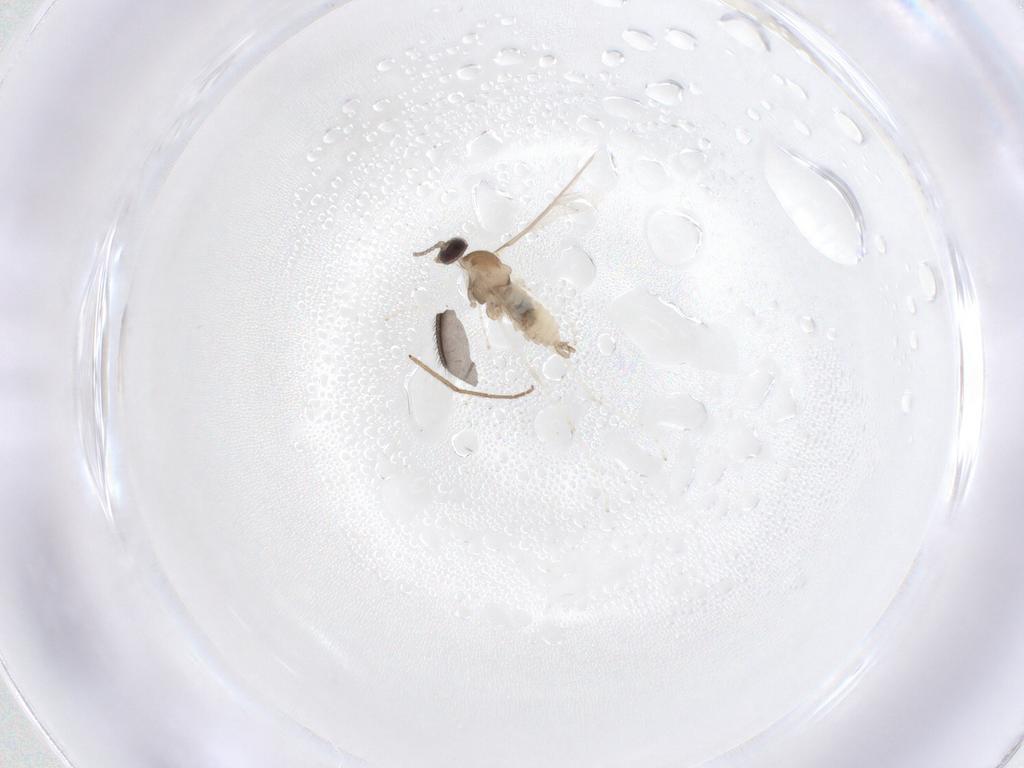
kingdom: Animalia
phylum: Arthropoda
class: Insecta
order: Diptera
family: Cecidomyiidae
